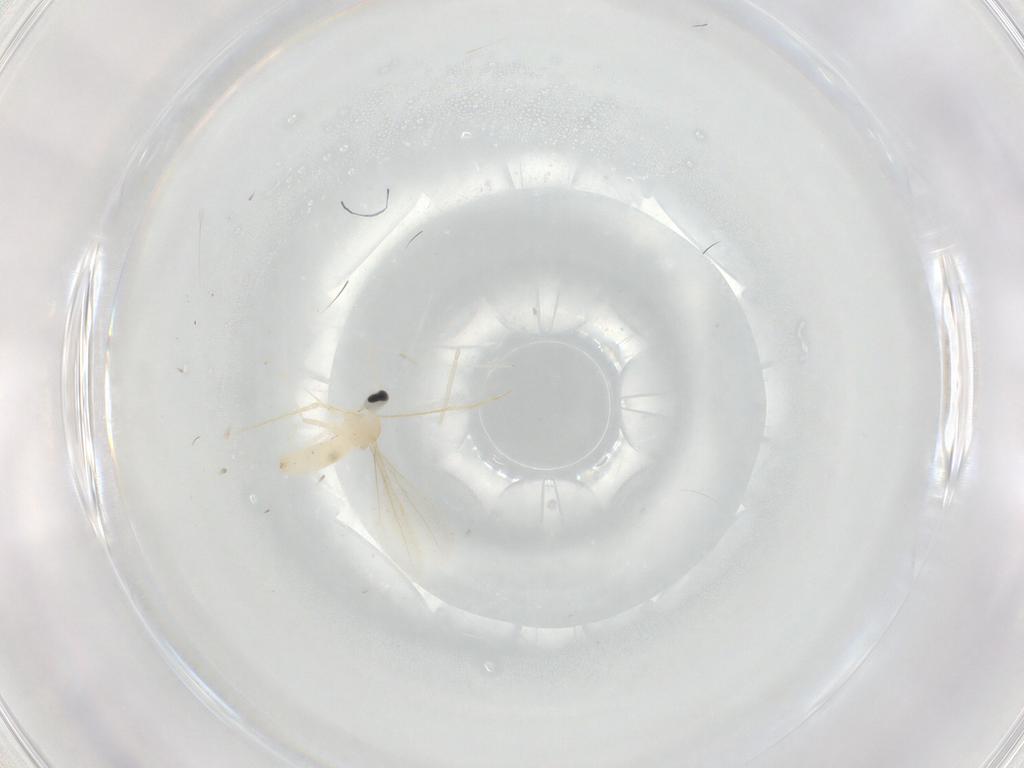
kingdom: Animalia
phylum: Arthropoda
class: Insecta
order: Diptera
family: Cecidomyiidae
